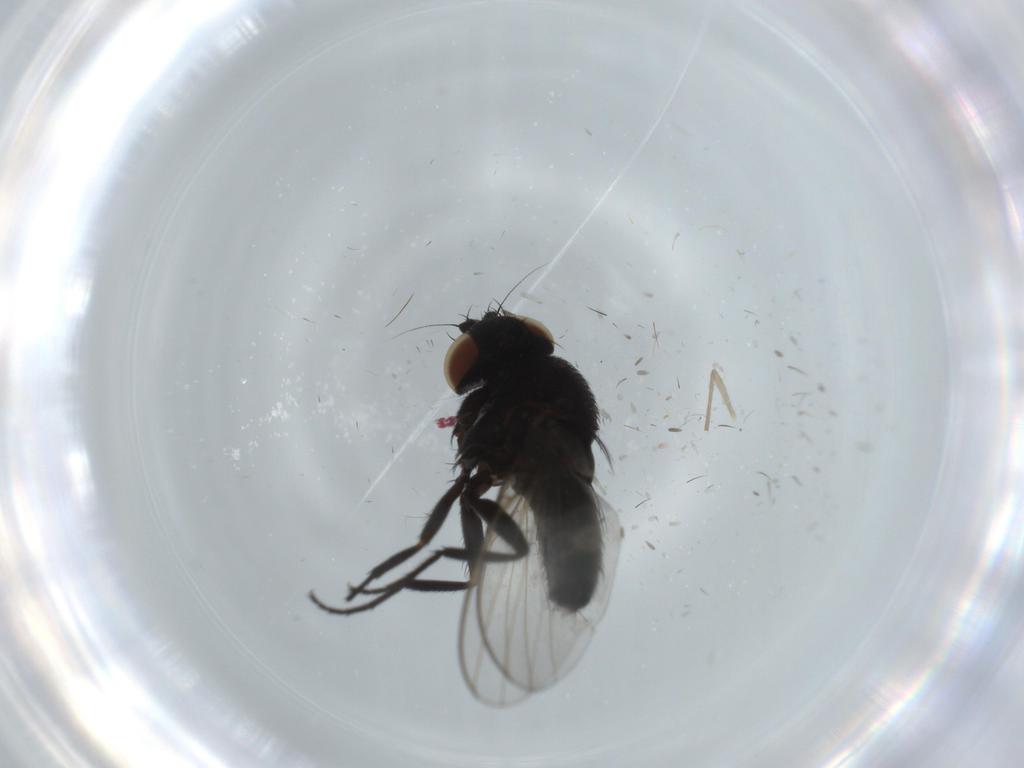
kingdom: Animalia
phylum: Arthropoda
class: Insecta
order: Diptera
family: Milichiidae
